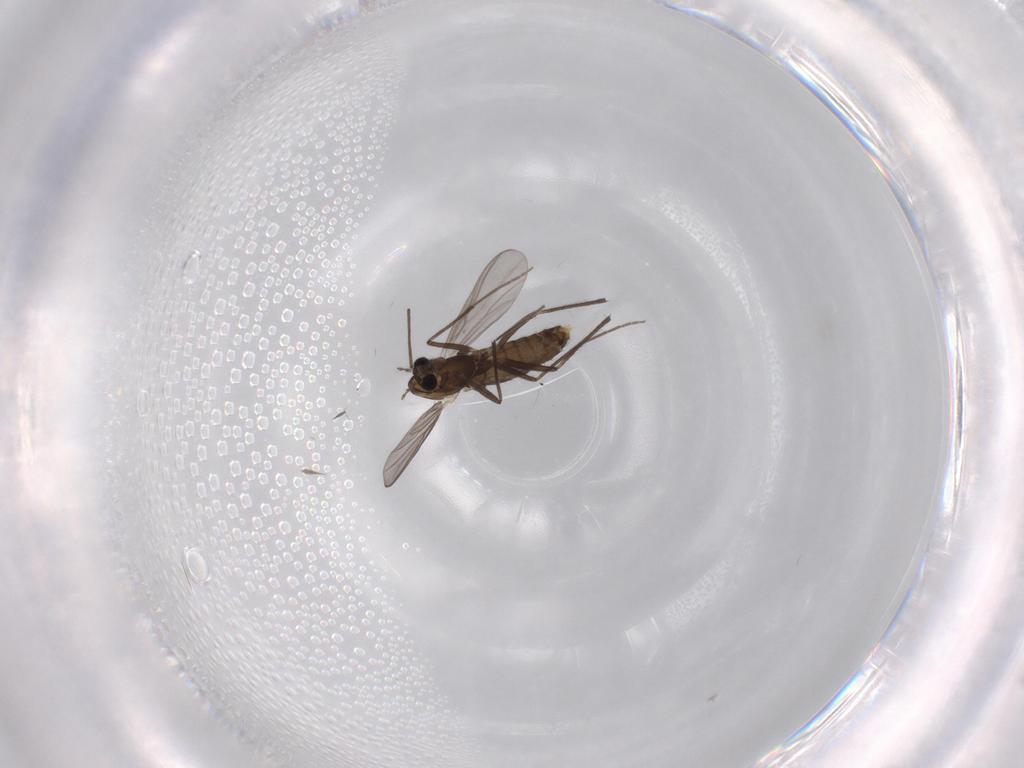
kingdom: Animalia
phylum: Arthropoda
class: Insecta
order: Diptera
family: Chironomidae
